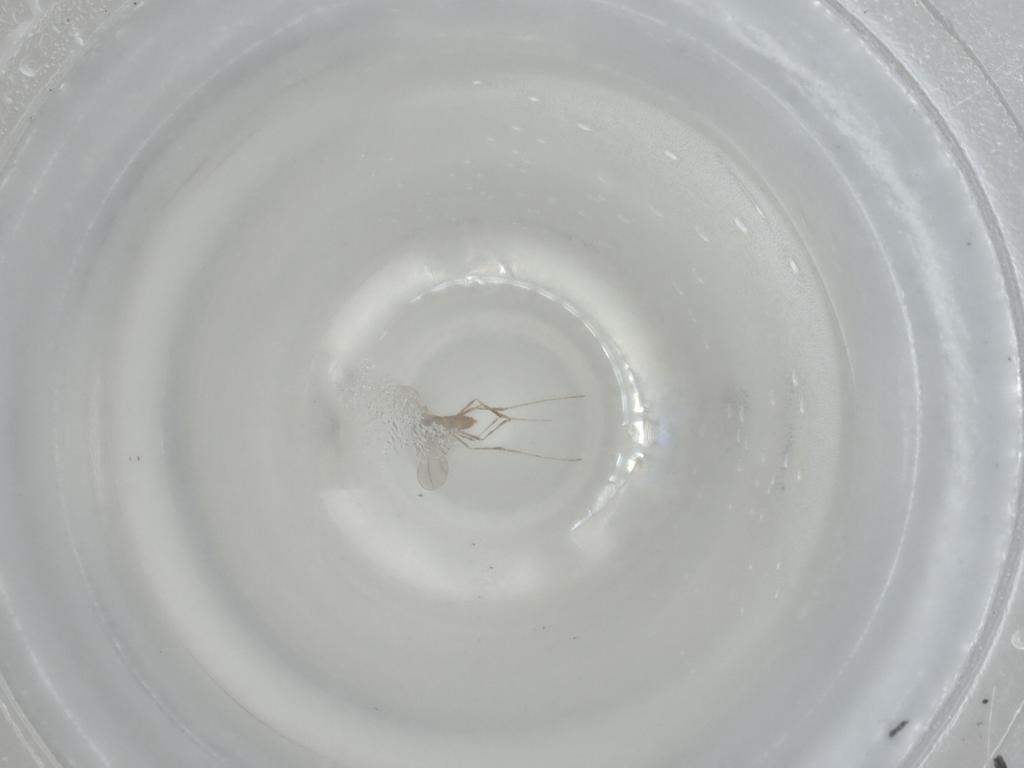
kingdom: Animalia
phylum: Arthropoda
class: Insecta
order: Diptera
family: Cecidomyiidae
